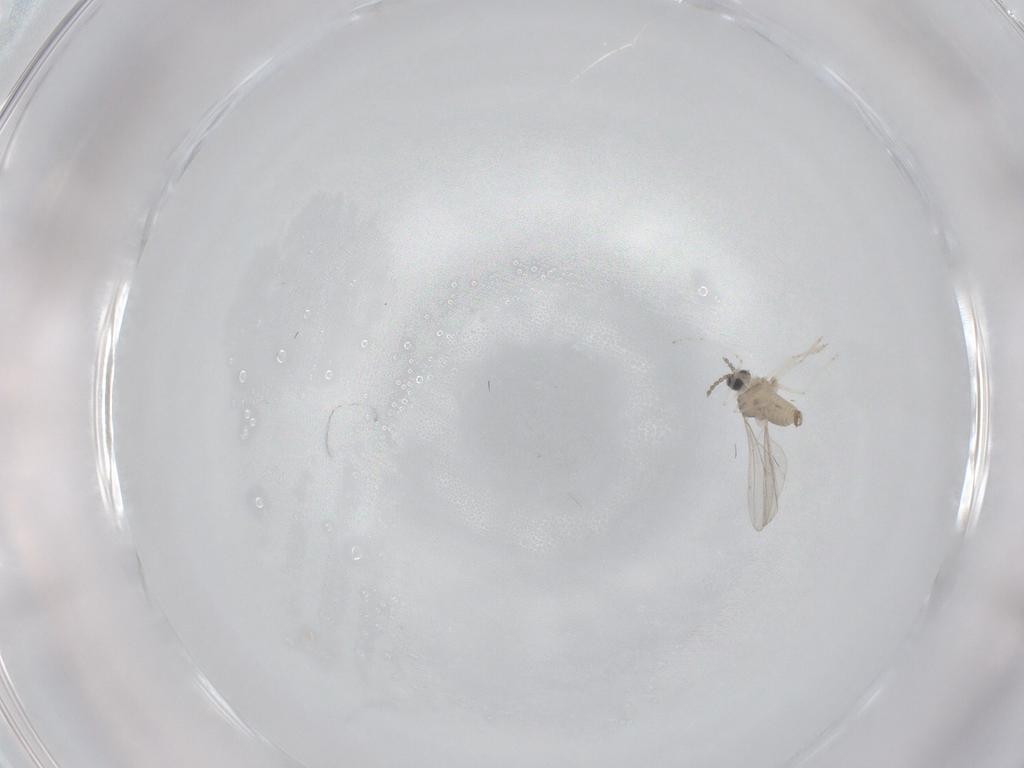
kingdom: Animalia
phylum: Arthropoda
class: Insecta
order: Diptera
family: Cecidomyiidae
